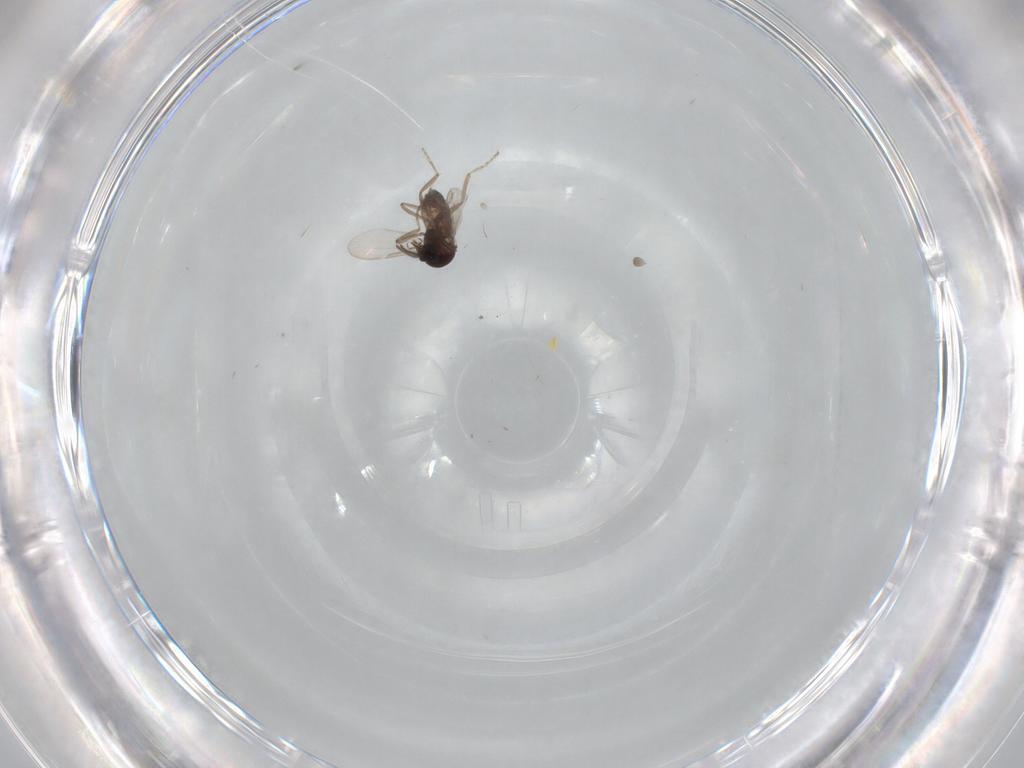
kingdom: Animalia
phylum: Arthropoda
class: Insecta
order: Diptera
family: Ceratopogonidae
